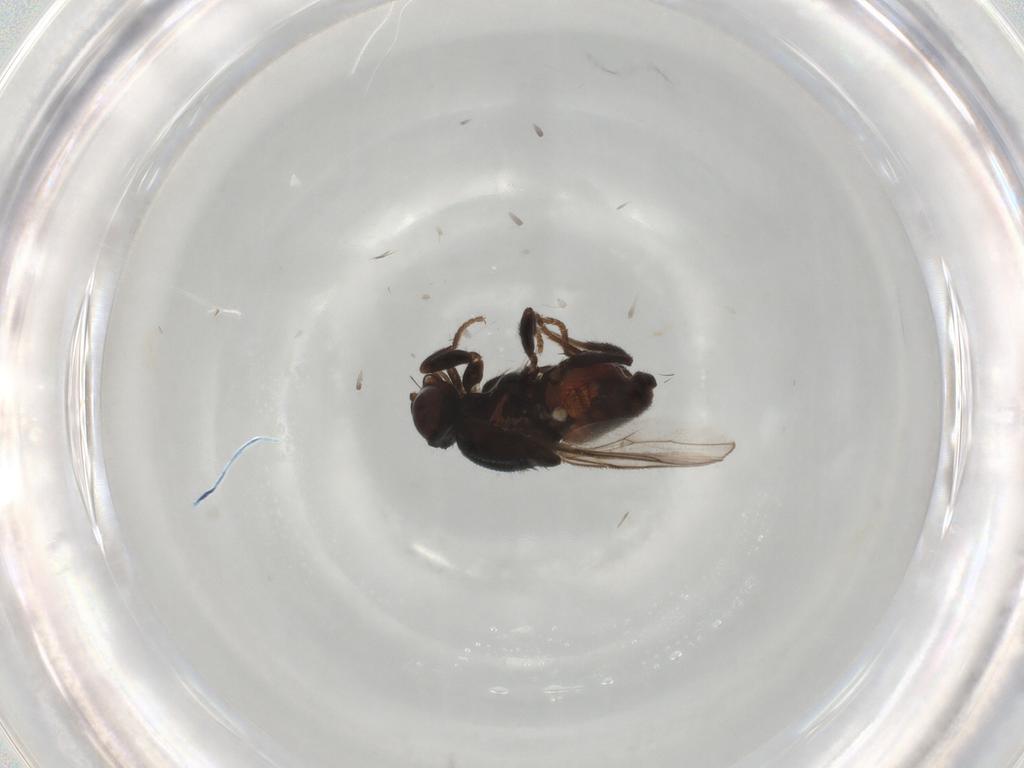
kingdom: Animalia
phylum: Arthropoda
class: Insecta
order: Diptera
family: Chloropidae
